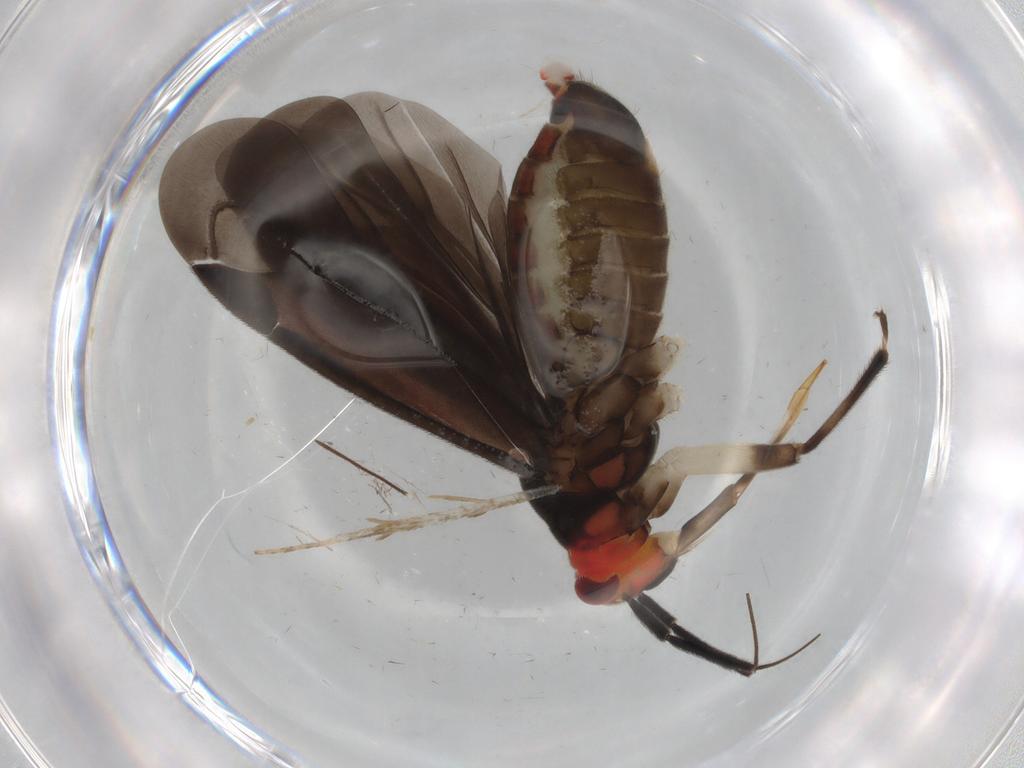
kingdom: Animalia
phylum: Arthropoda
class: Insecta
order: Hemiptera
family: Miridae
